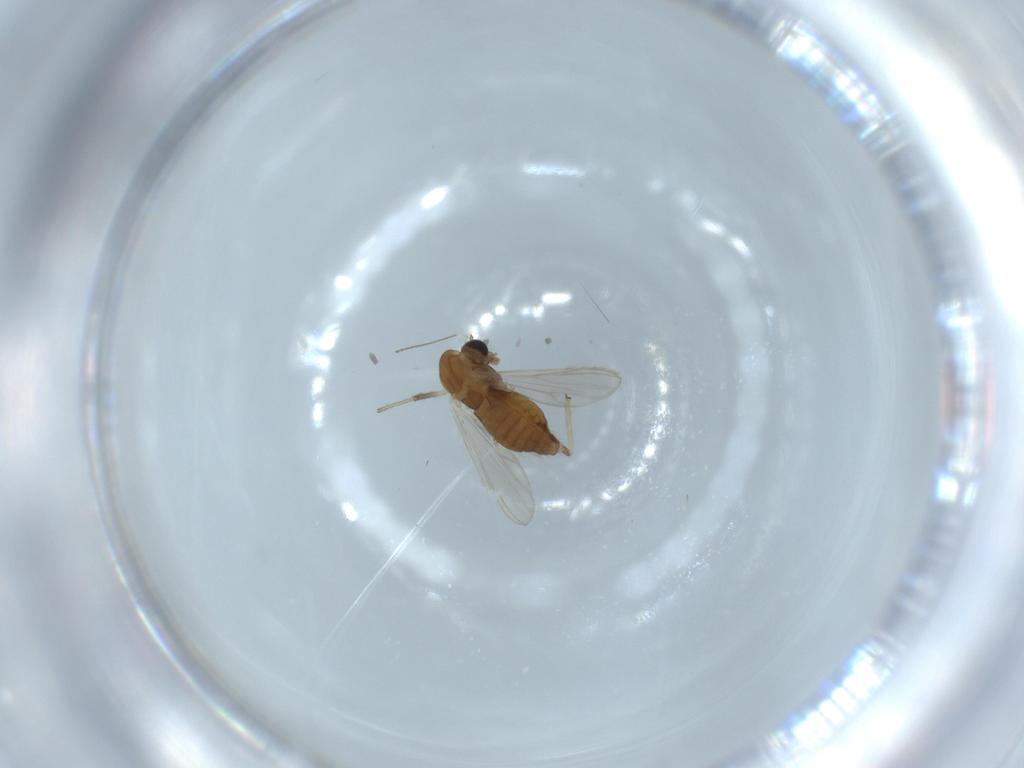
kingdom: Animalia
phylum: Arthropoda
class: Insecta
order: Diptera
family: Chironomidae
